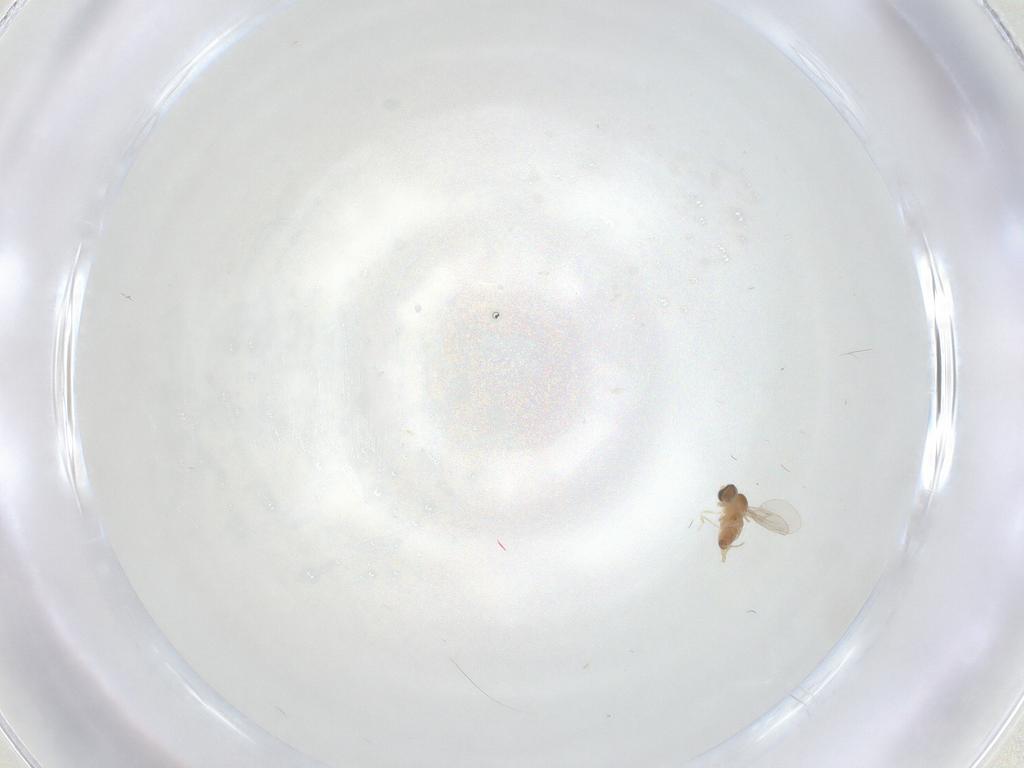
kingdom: Animalia
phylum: Arthropoda
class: Insecta
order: Diptera
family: Cecidomyiidae
